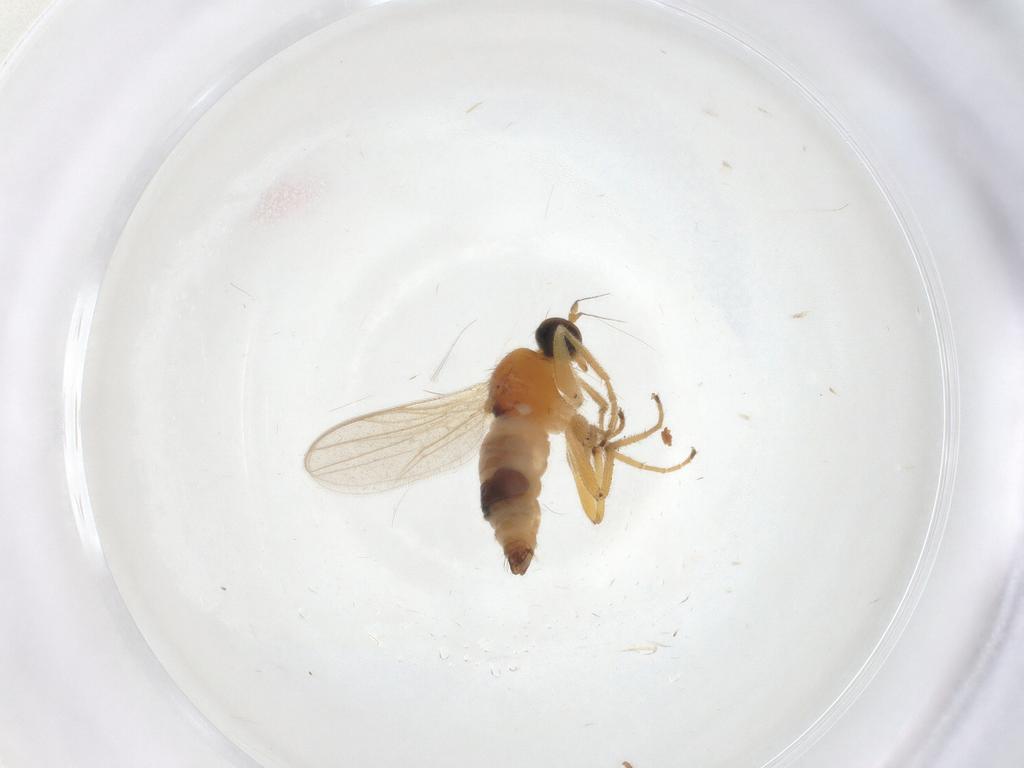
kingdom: Animalia
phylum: Arthropoda
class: Insecta
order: Diptera
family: Hybotidae
